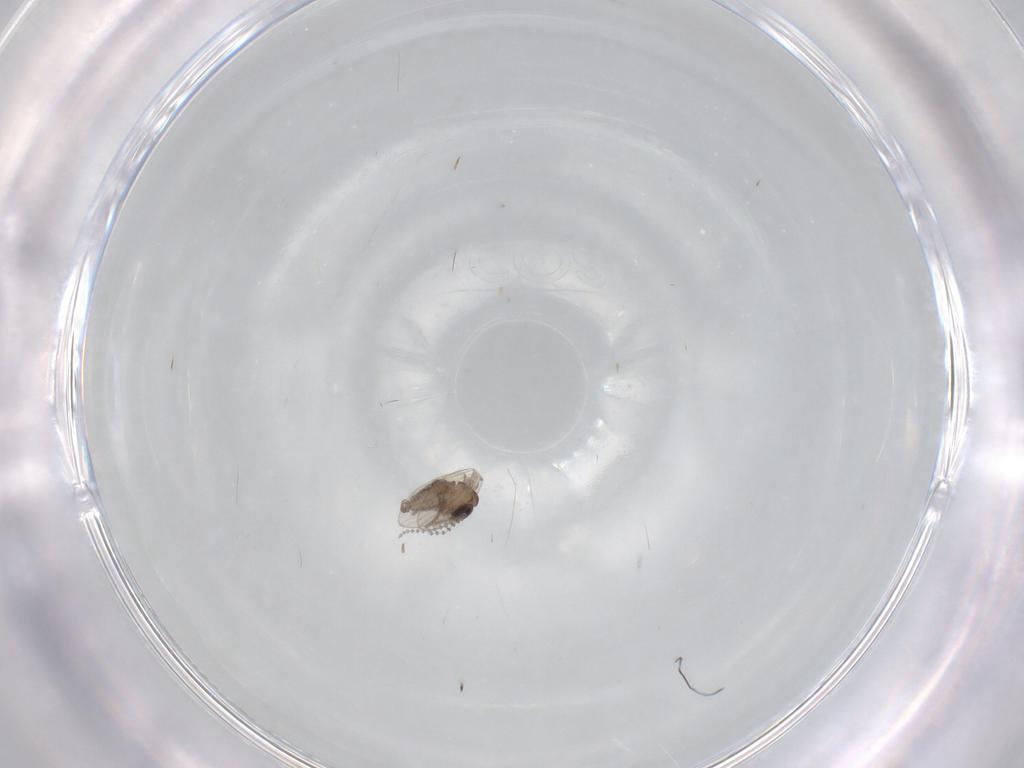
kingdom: Animalia
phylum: Arthropoda
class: Insecta
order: Diptera
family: Psychodidae
